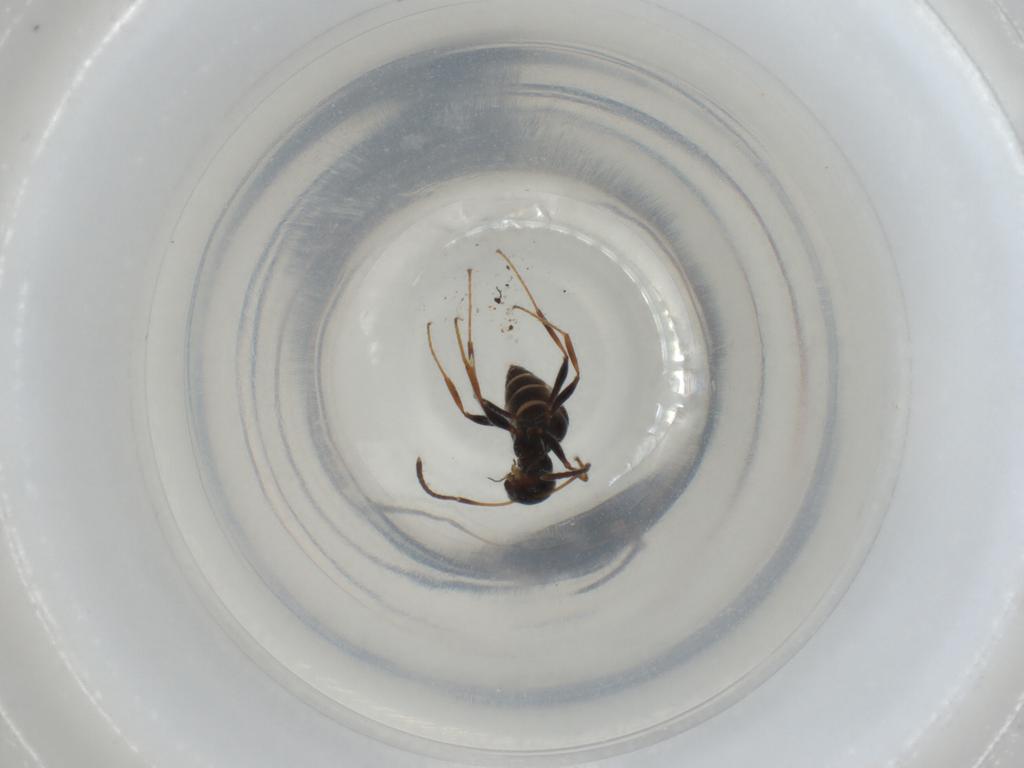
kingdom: Animalia
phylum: Arthropoda
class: Insecta
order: Hymenoptera
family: Formicidae
